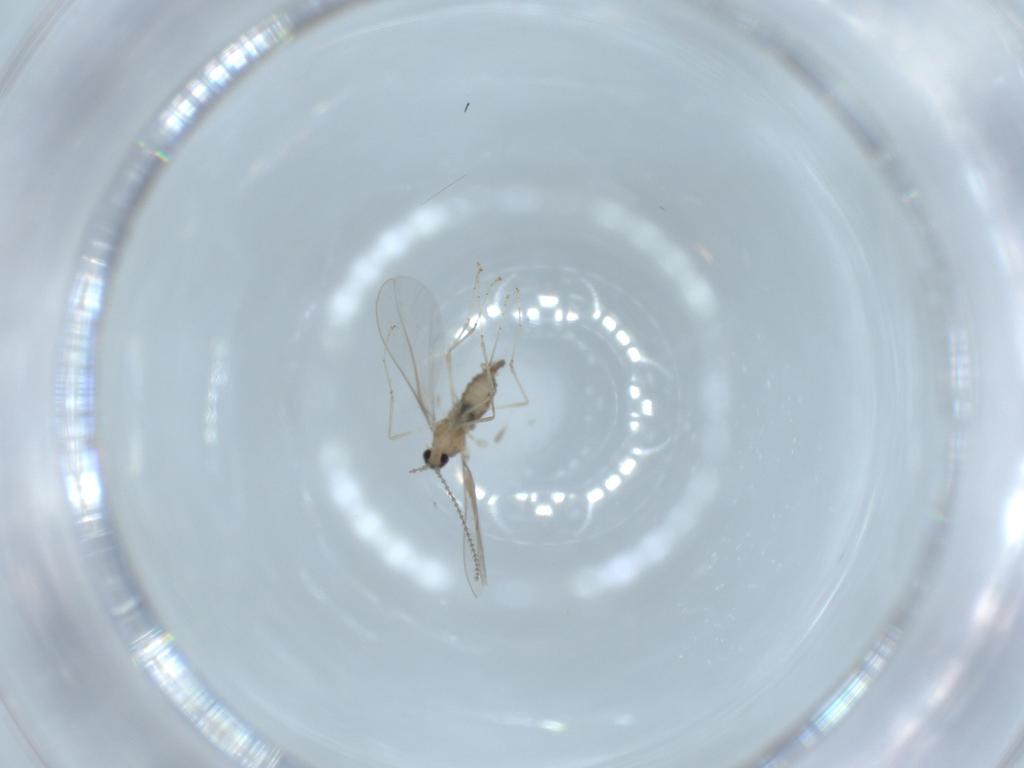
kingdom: Animalia
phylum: Arthropoda
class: Insecta
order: Diptera
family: Cecidomyiidae
